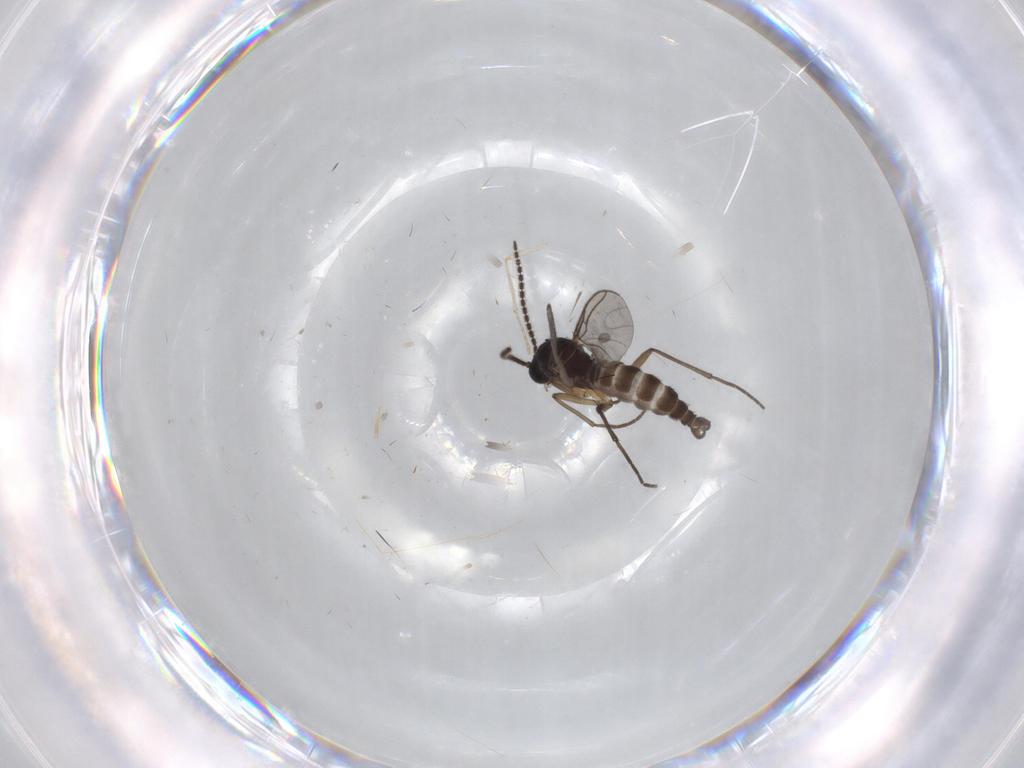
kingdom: Animalia
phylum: Arthropoda
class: Insecta
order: Diptera
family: Sciaridae
